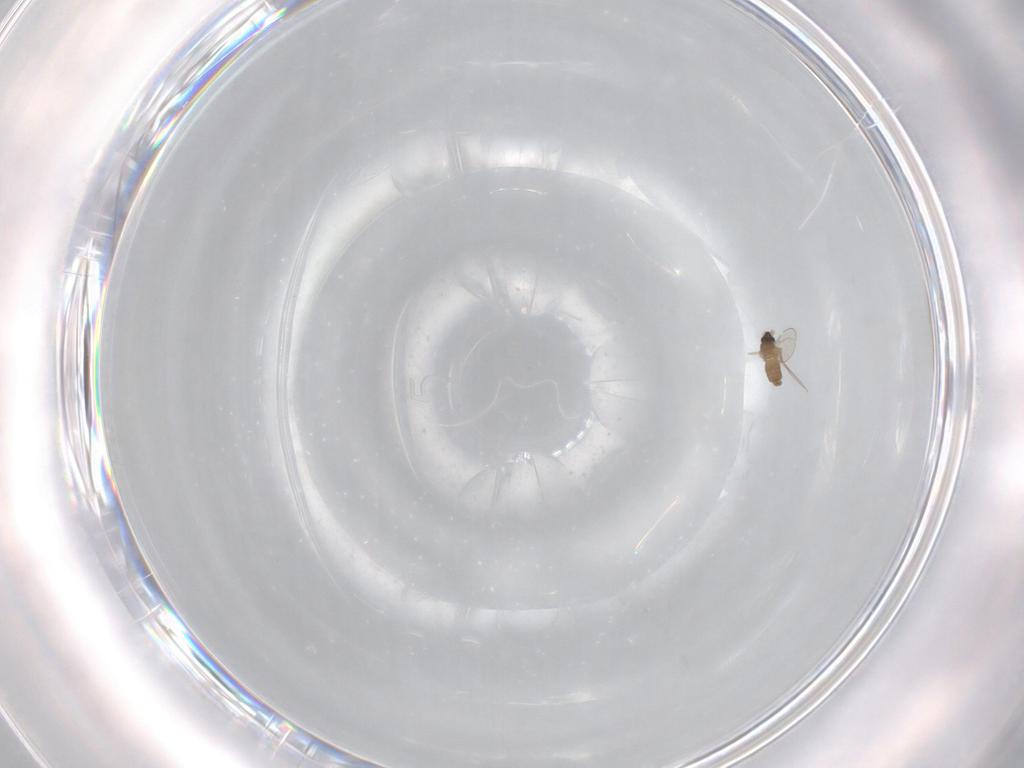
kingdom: Animalia
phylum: Arthropoda
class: Insecta
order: Diptera
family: Cecidomyiidae
